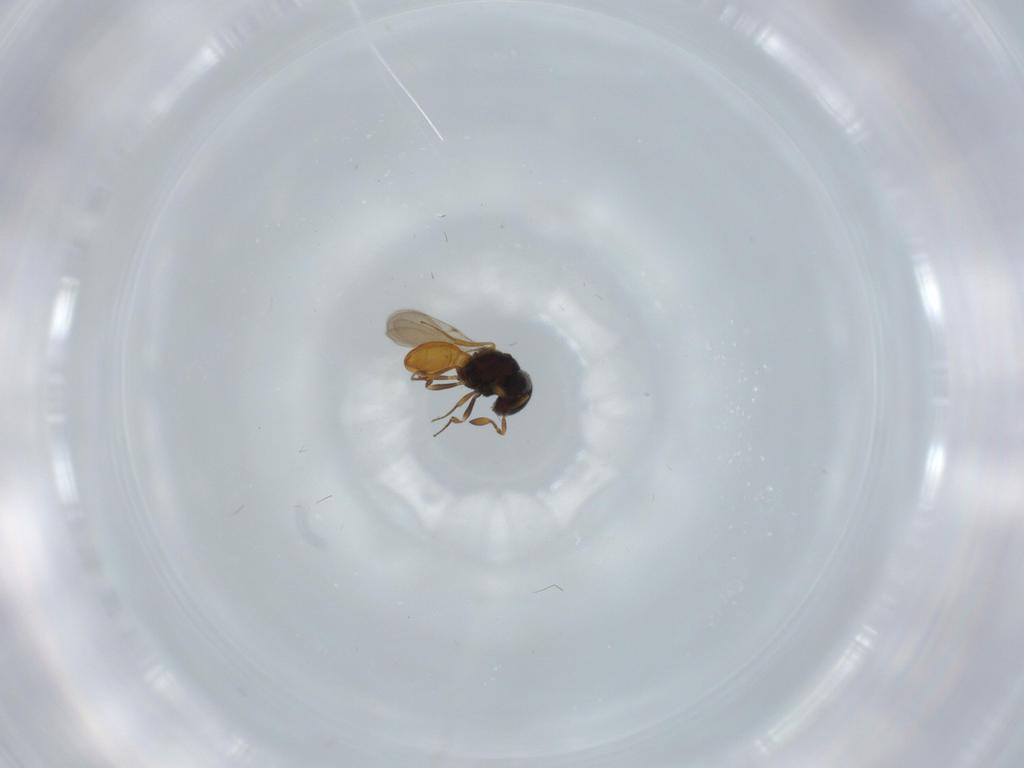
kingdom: Animalia
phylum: Arthropoda
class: Insecta
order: Hymenoptera
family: Scelionidae
